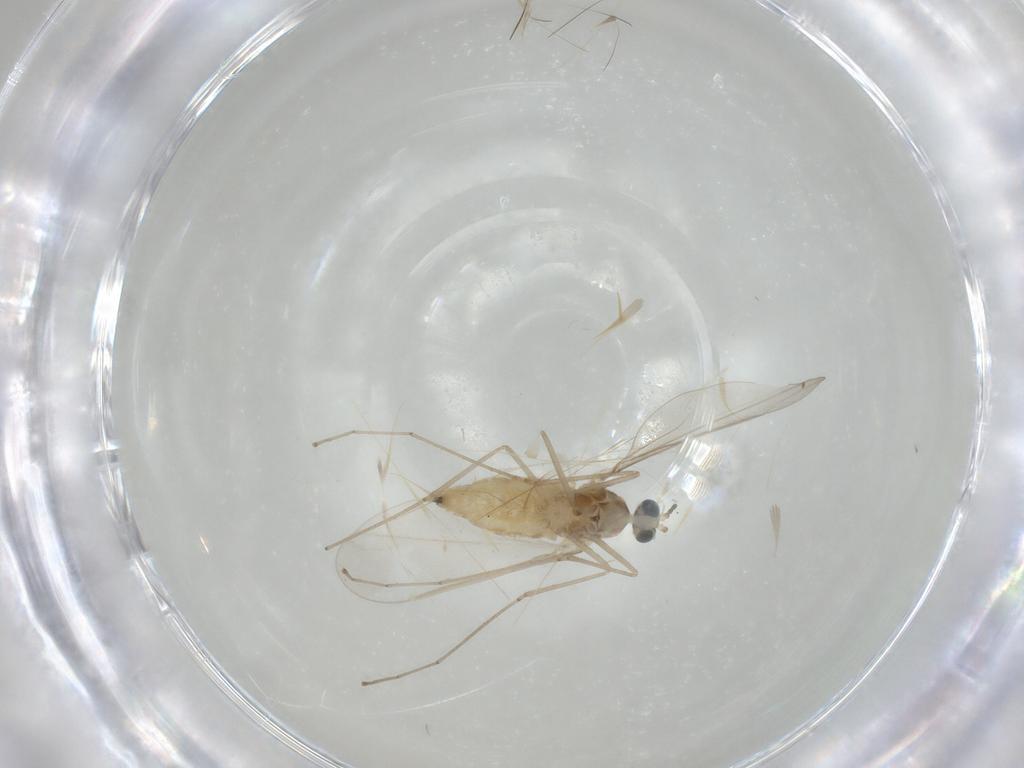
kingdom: Animalia
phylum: Arthropoda
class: Insecta
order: Diptera
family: Cecidomyiidae
